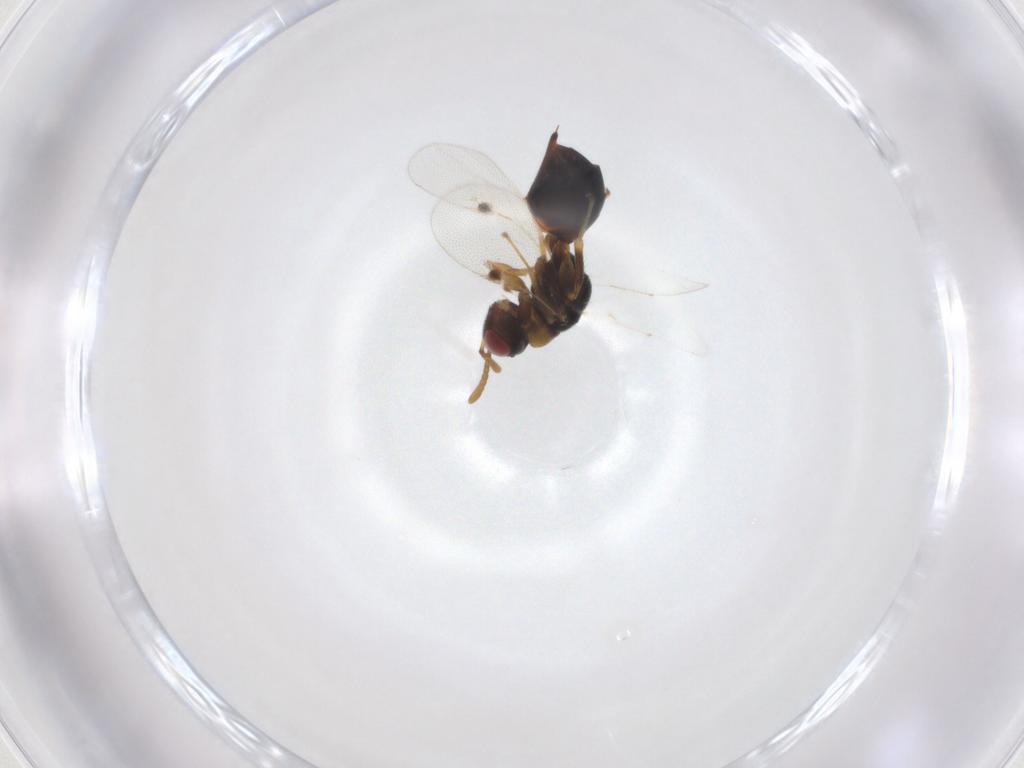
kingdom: Animalia
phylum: Arthropoda
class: Insecta
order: Hymenoptera
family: Eurytomidae
